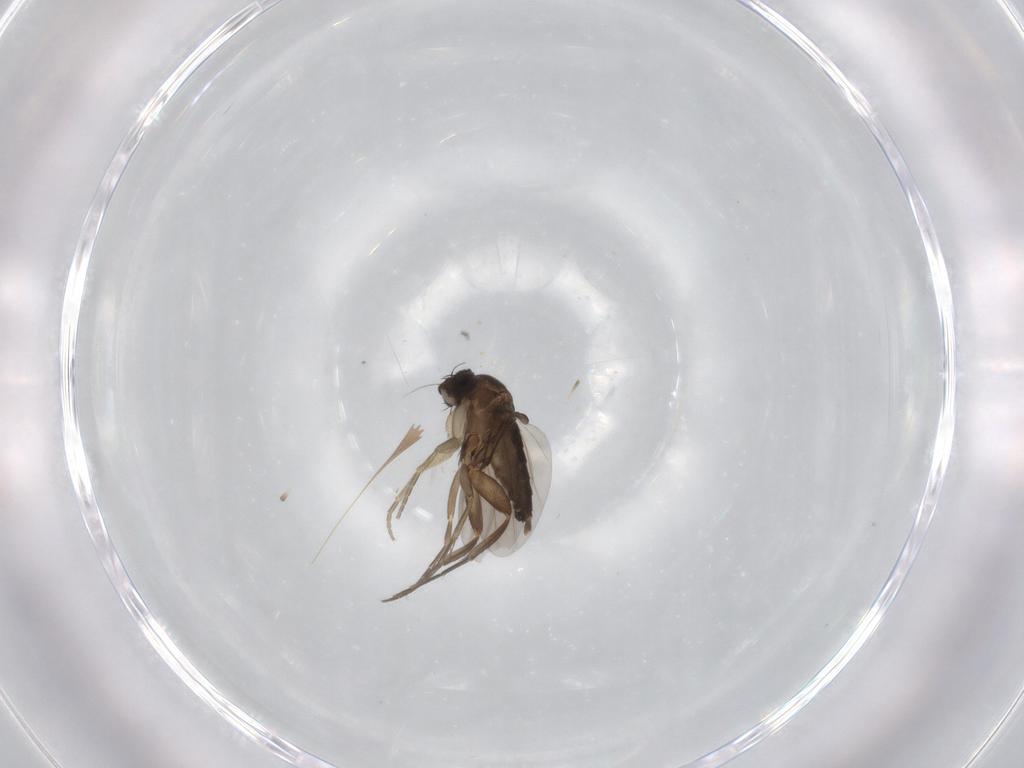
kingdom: Animalia
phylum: Arthropoda
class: Insecta
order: Diptera
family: Phoridae
